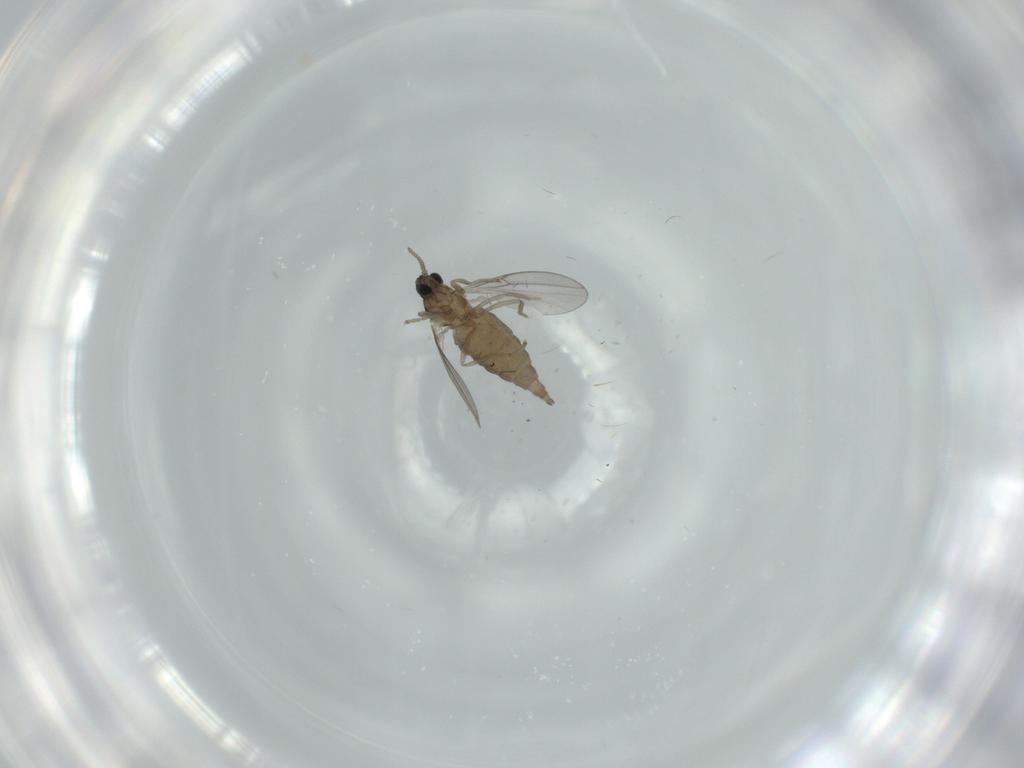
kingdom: Animalia
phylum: Arthropoda
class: Insecta
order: Diptera
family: Cecidomyiidae
